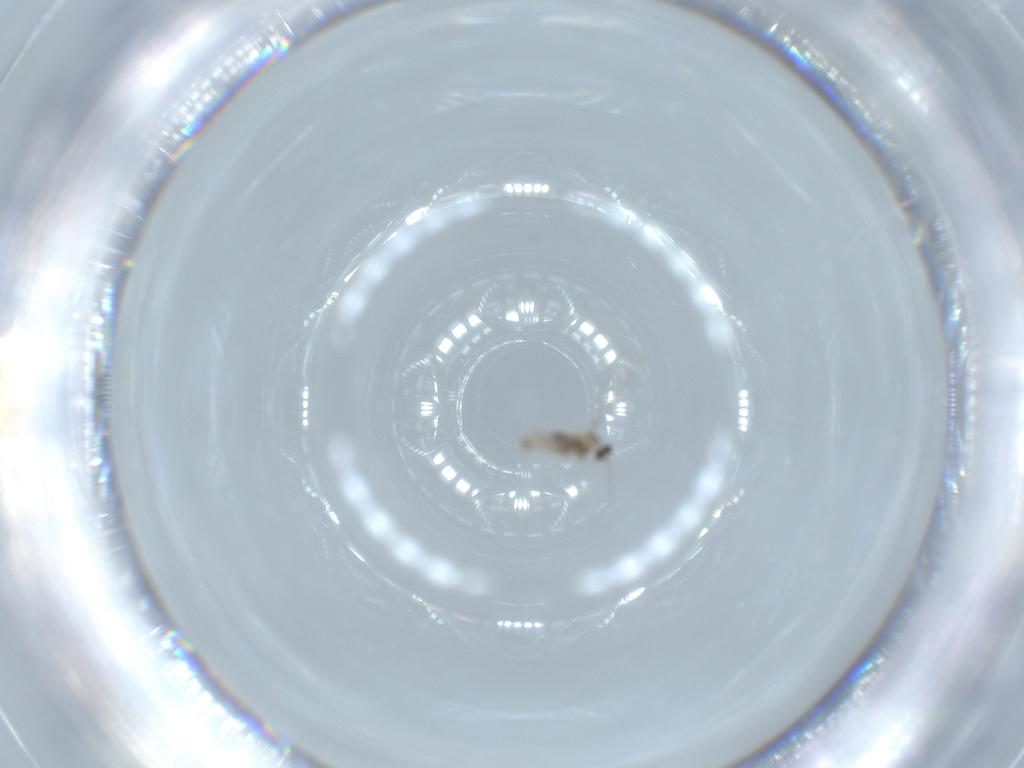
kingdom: Animalia
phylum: Arthropoda
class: Insecta
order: Diptera
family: Cecidomyiidae
